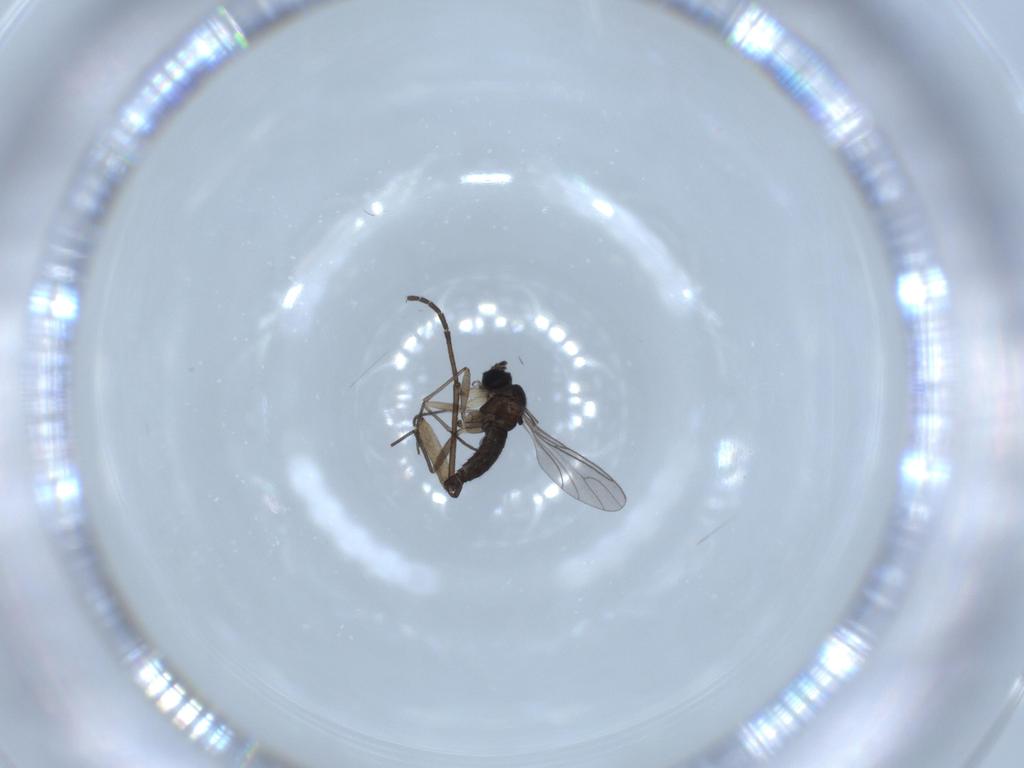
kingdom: Animalia
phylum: Arthropoda
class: Insecta
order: Diptera
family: Sciaridae
